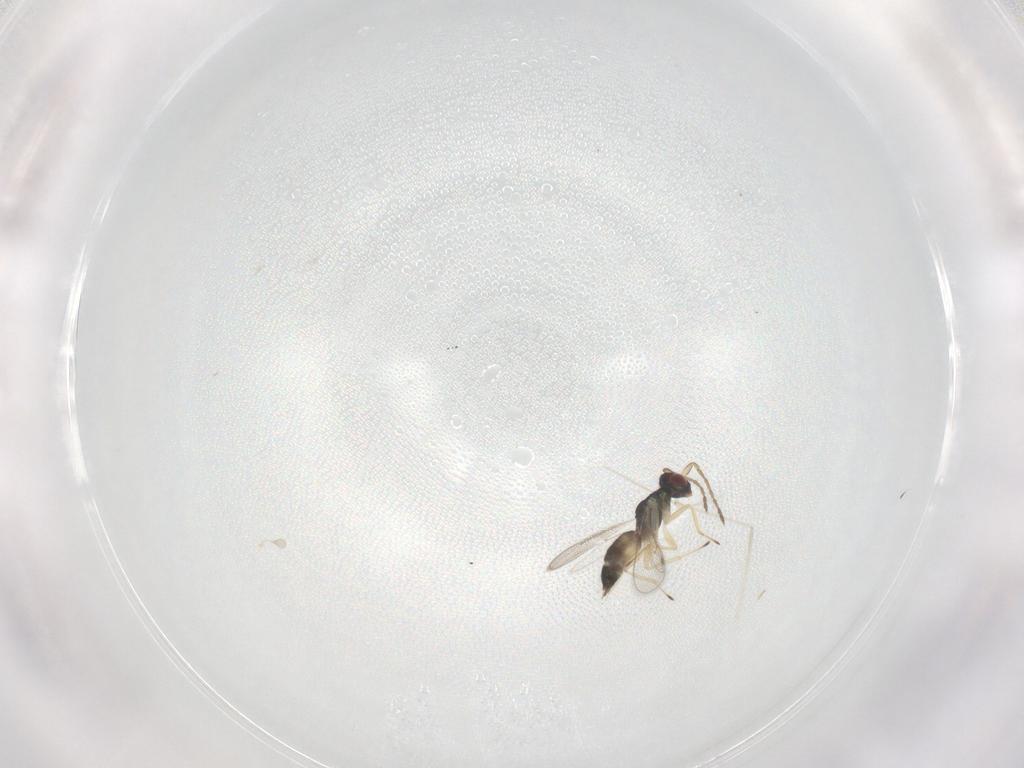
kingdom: Animalia
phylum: Arthropoda
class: Insecta
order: Hymenoptera
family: Eulophidae
